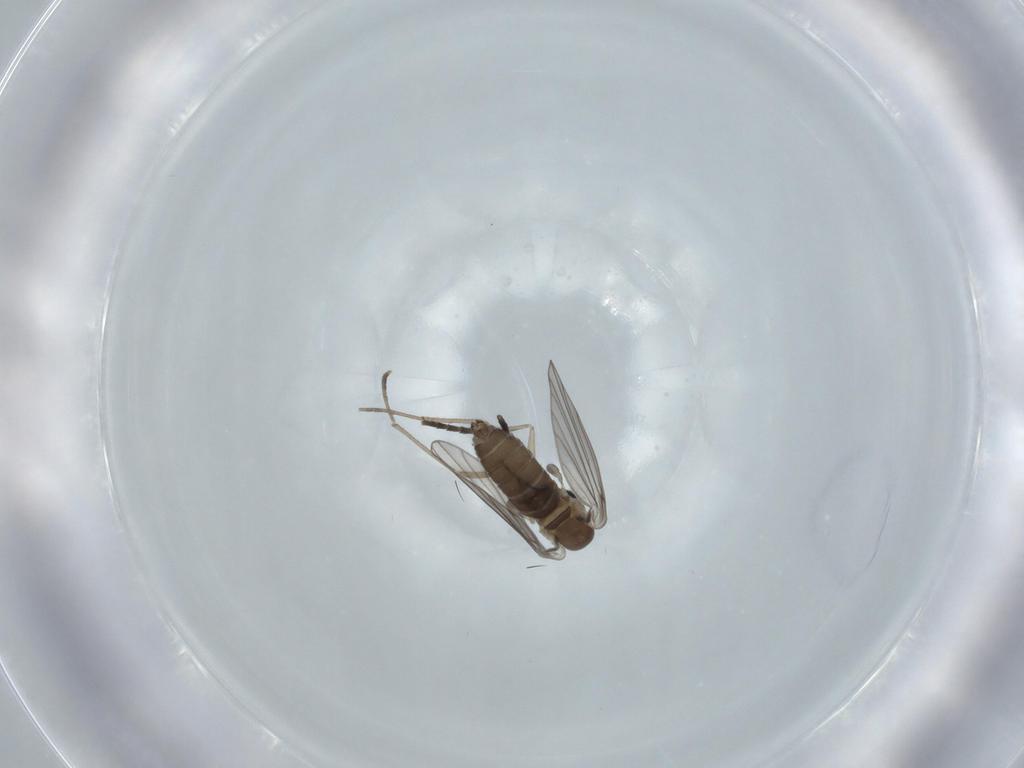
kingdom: Animalia
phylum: Arthropoda
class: Insecta
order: Diptera
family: Psychodidae
